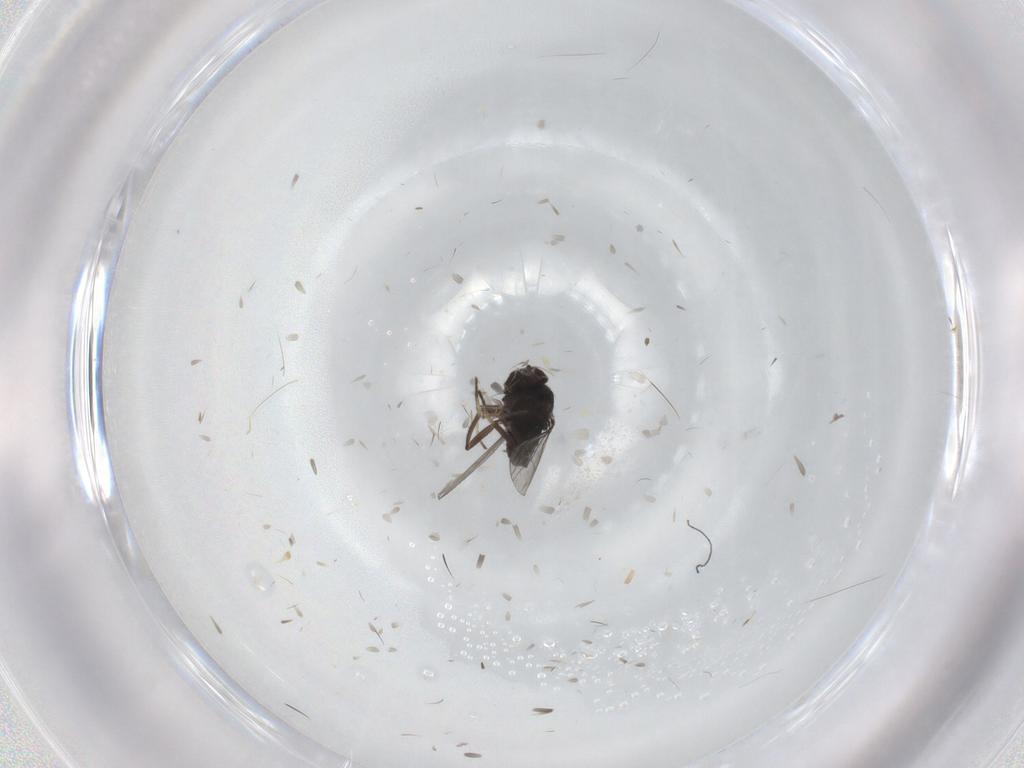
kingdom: Animalia
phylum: Arthropoda
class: Insecta
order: Diptera
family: Dolichopodidae
